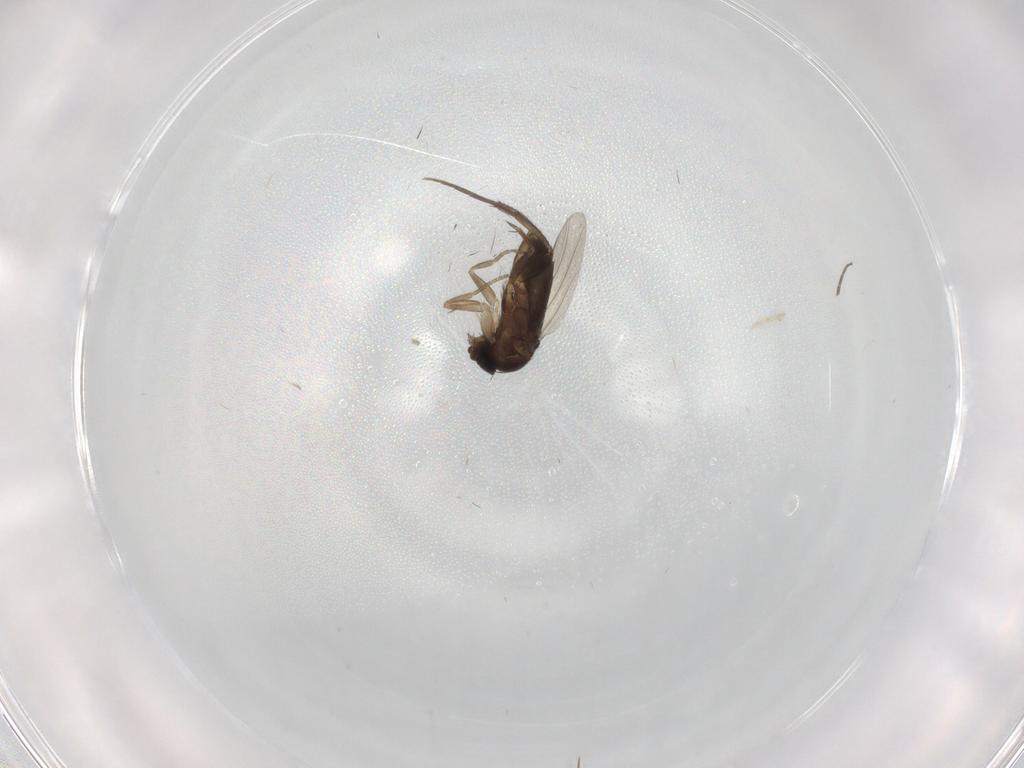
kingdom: Animalia
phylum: Arthropoda
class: Insecta
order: Diptera
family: Phoridae
